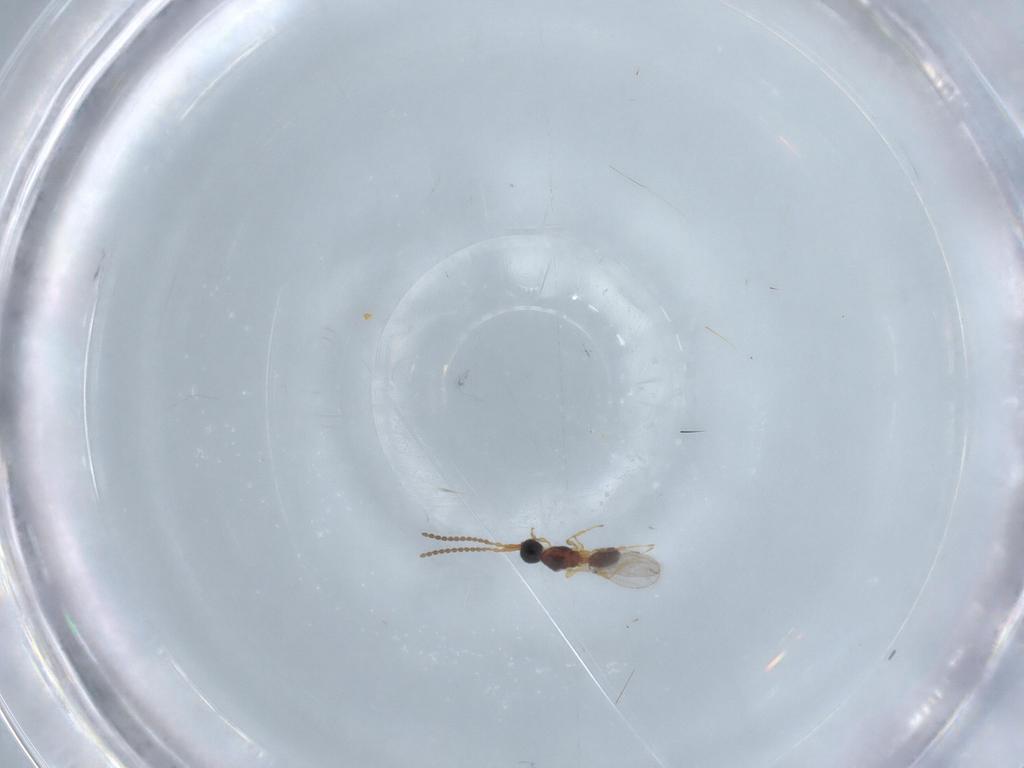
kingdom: Animalia
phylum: Arthropoda
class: Insecta
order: Hymenoptera
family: Diapriidae
